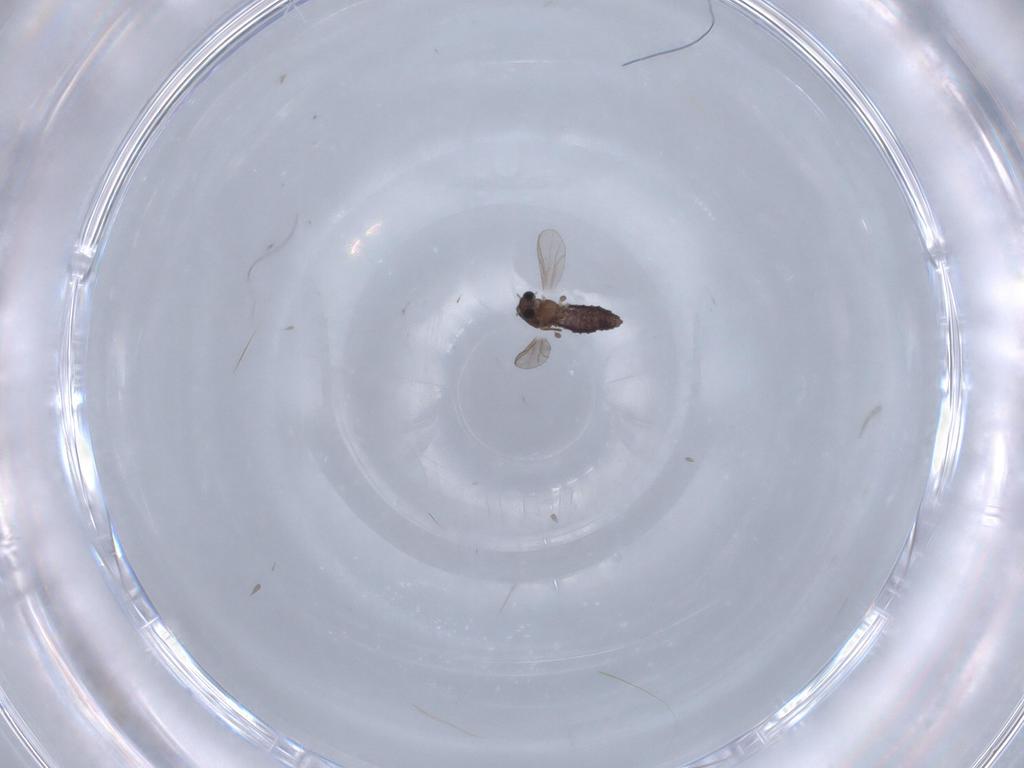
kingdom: Animalia
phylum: Arthropoda
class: Insecta
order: Diptera
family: Chironomidae
